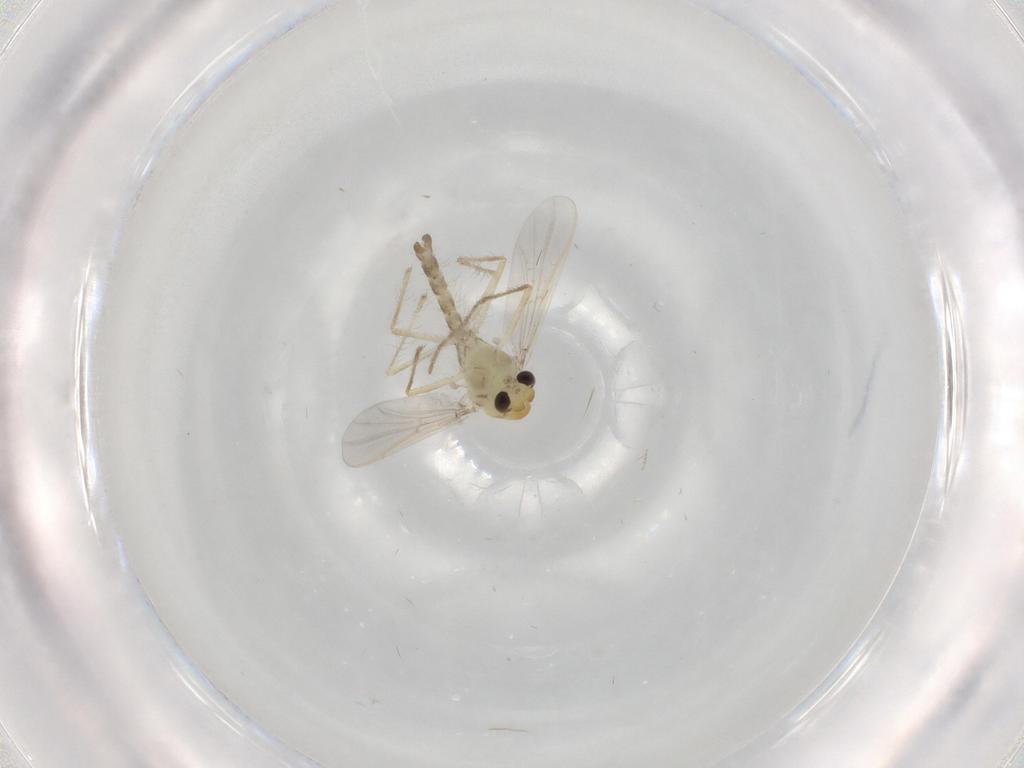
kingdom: Animalia
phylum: Arthropoda
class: Insecta
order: Diptera
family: Chironomidae
